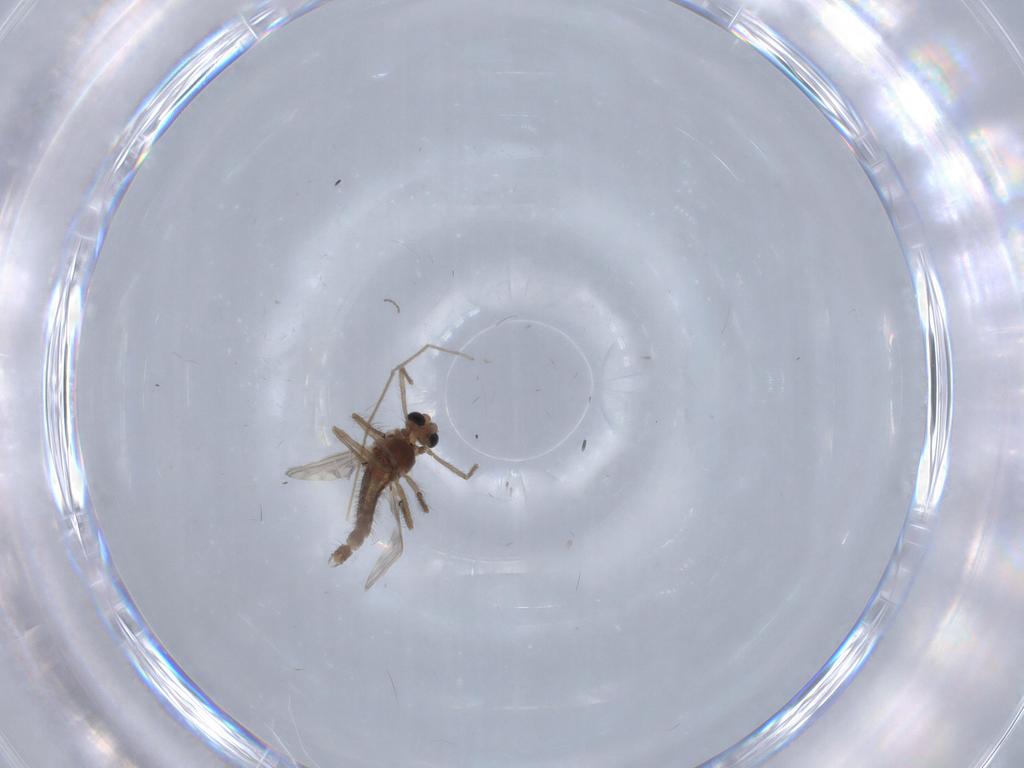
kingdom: Animalia
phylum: Arthropoda
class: Insecta
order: Diptera
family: Chironomidae
